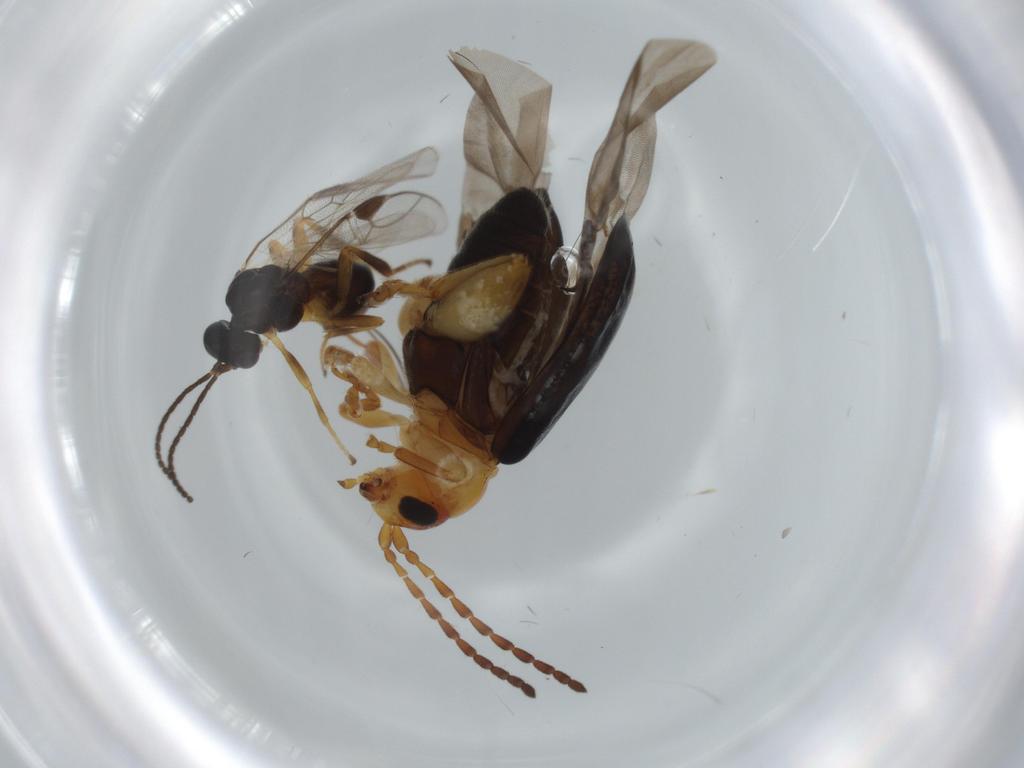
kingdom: Animalia
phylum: Arthropoda
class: Insecta
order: Coleoptera
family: Chrysomelidae
